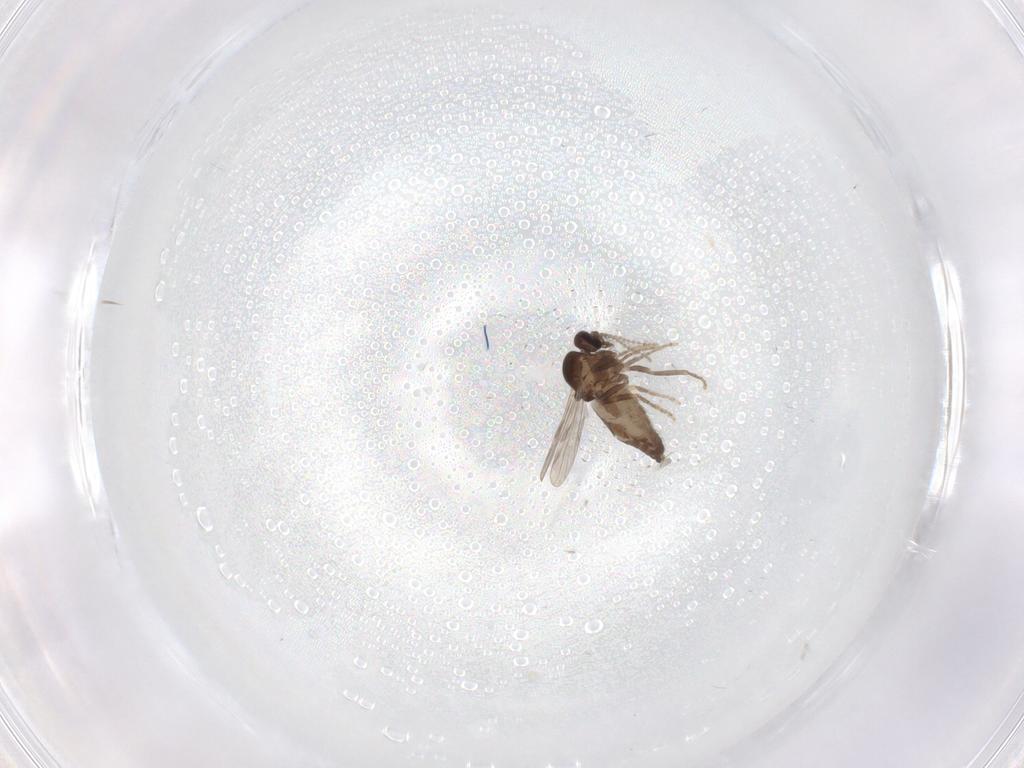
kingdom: Animalia
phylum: Arthropoda
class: Insecta
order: Diptera
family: Ceratopogonidae
